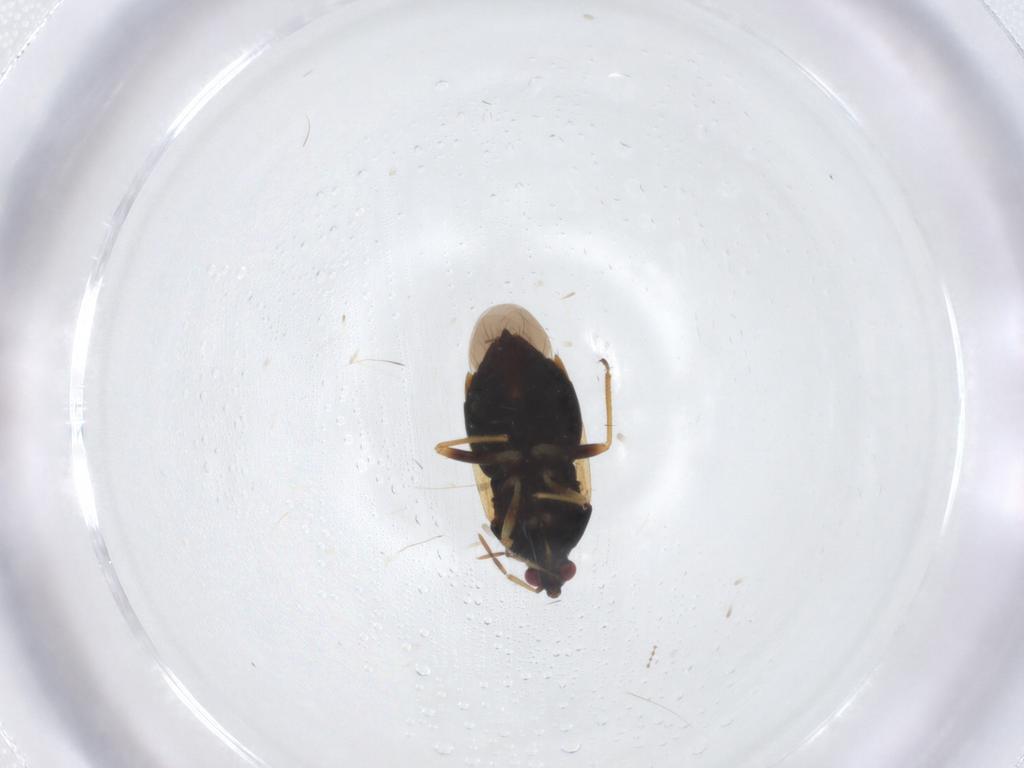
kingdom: Animalia
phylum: Arthropoda
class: Insecta
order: Hemiptera
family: Anthocoridae
